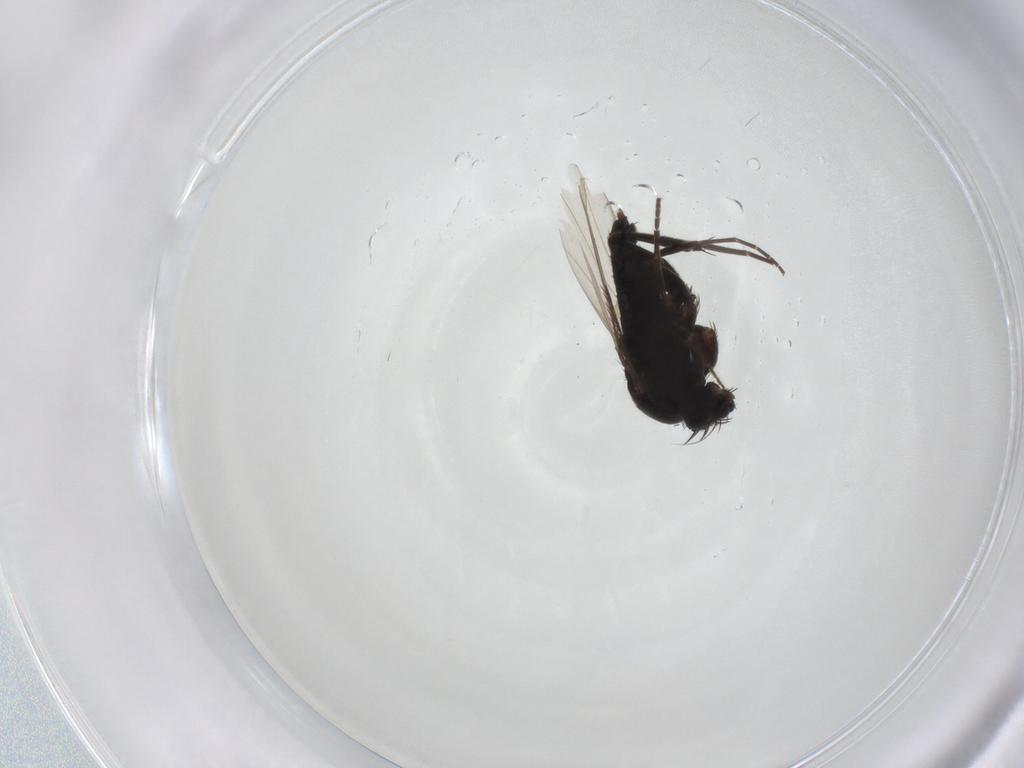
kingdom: Animalia
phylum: Arthropoda
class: Insecta
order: Diptera
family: Phoridae
